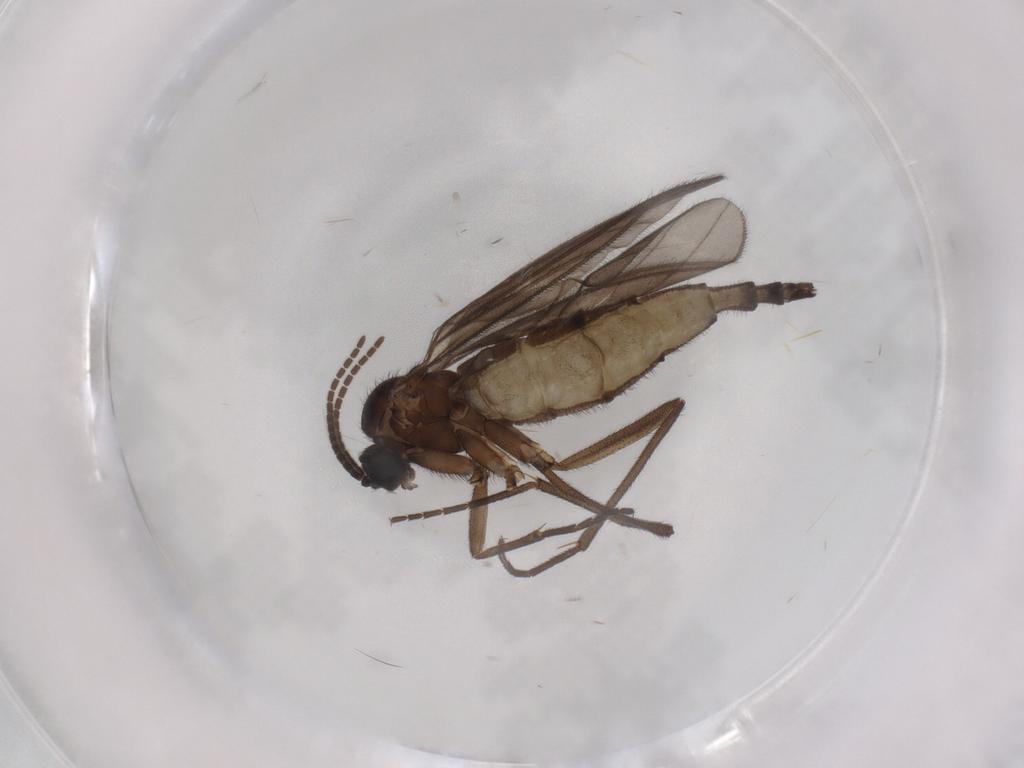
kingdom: Animalia
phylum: Arthropoda
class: Insecta
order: Diptera
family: Sciaridae
